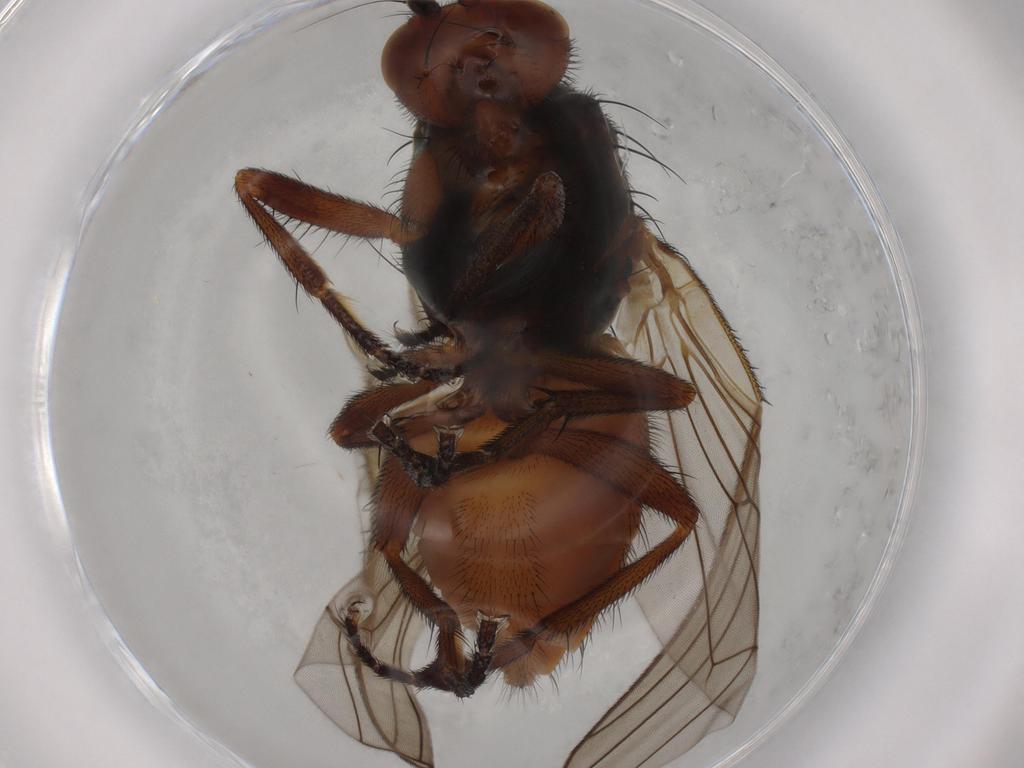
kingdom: Animalia
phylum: Arthropoda
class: Insecta
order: Diptera
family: Heleomyzidae
